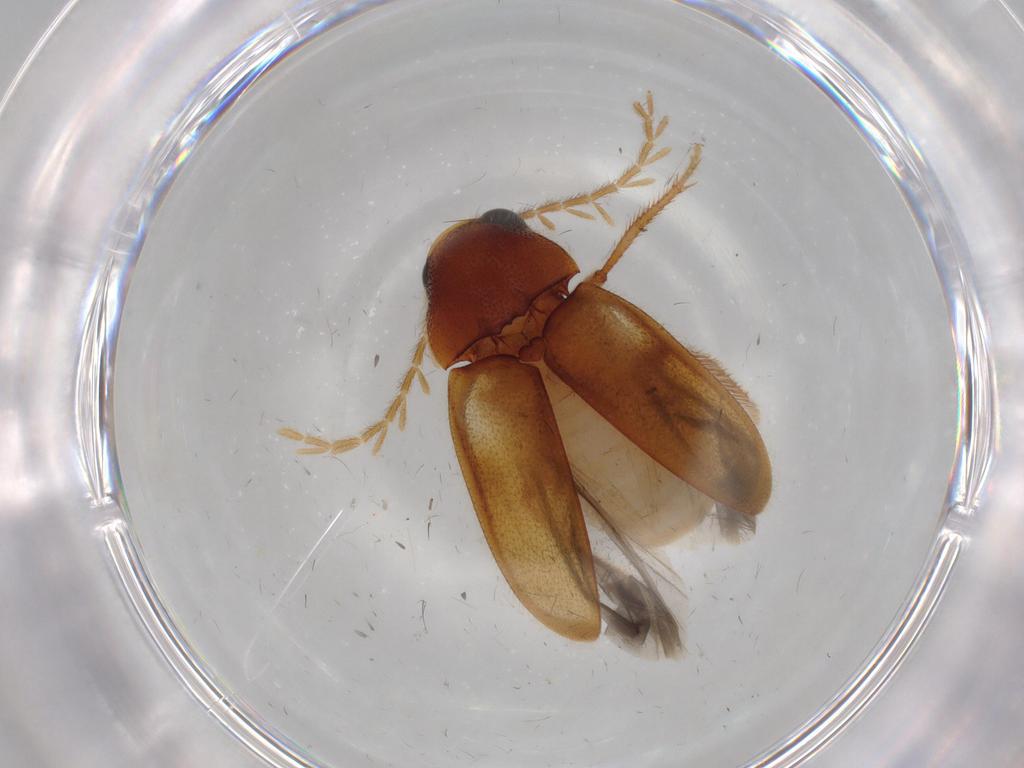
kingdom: Animalia
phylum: Arthropoda
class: Insecta
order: Coleoptera
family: Ptilodactylidae
